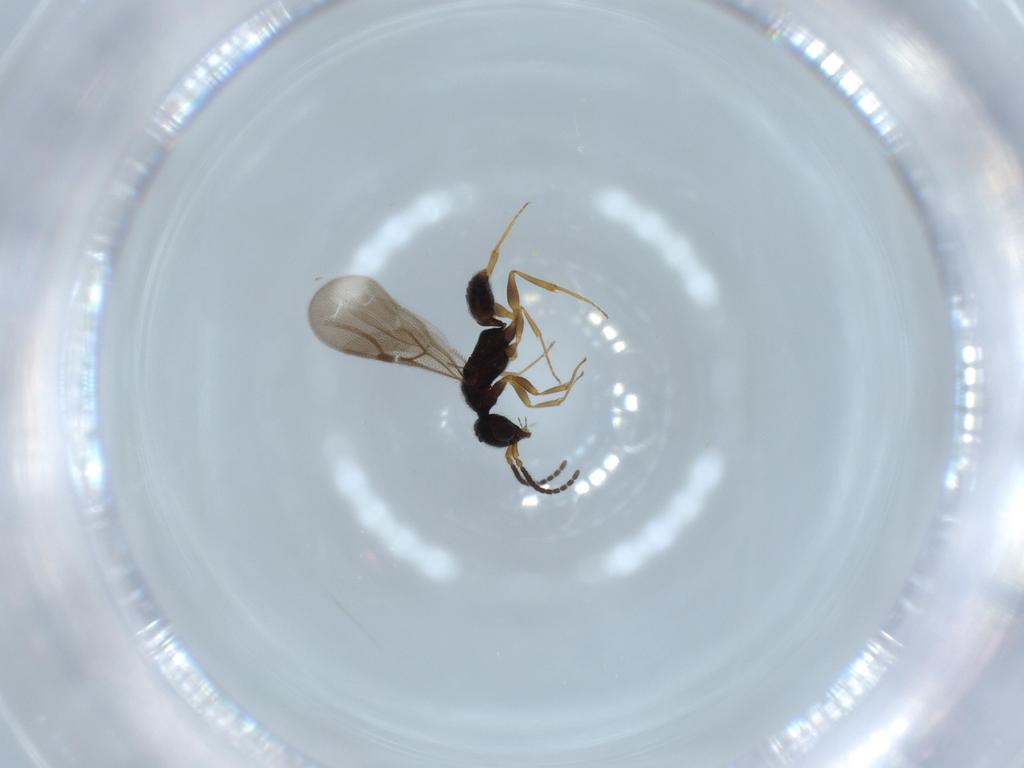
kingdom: Animalia
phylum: Arthropoda
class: Insecta
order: Hymenoptera
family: Bethylidae
